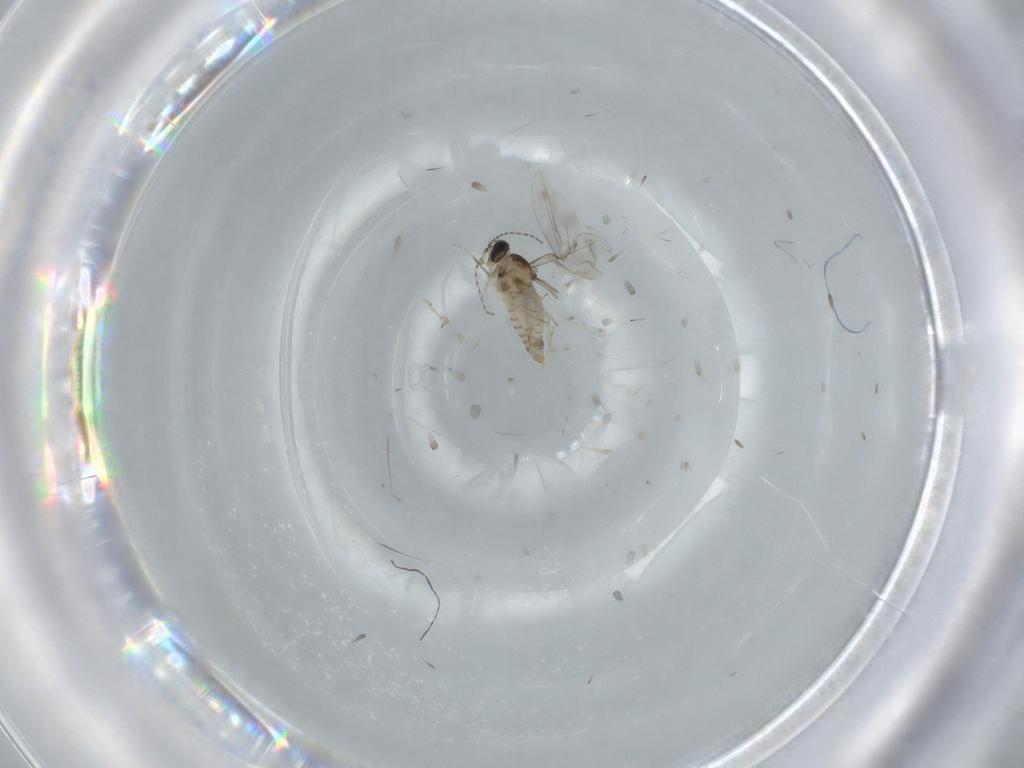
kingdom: Animalia
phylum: Arthropoda
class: Insecta
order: Diptera
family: Cecidomyiidae
